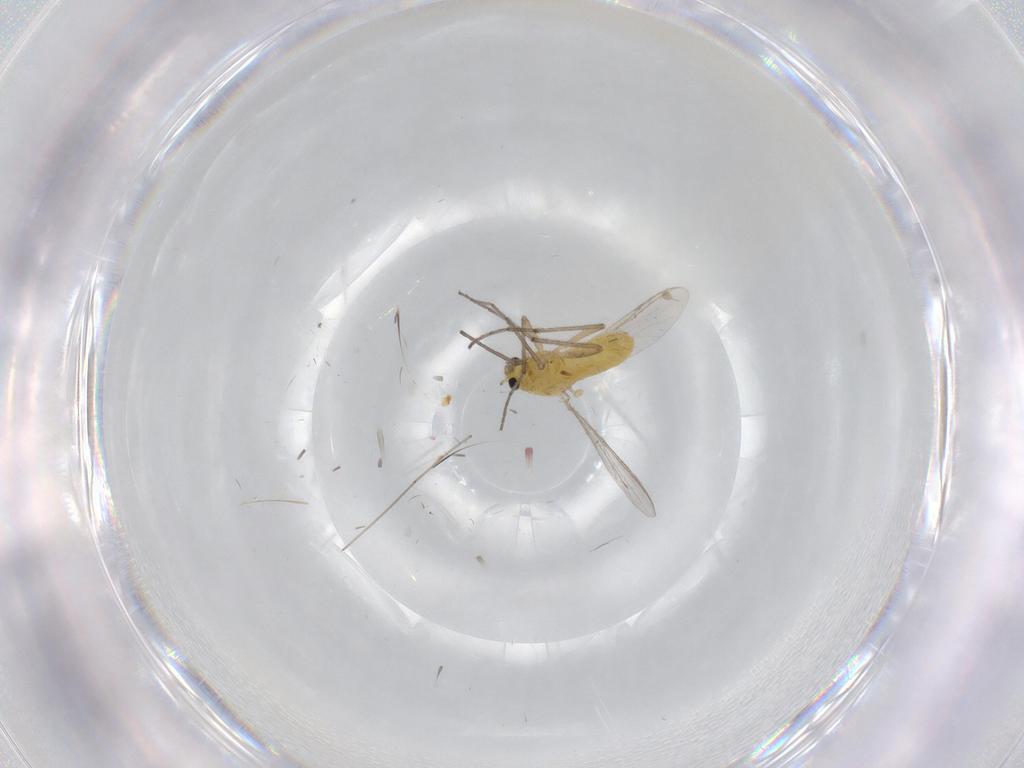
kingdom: Animalia
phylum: Arthropoda
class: Insecta
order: Diptera
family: Chironomidae
